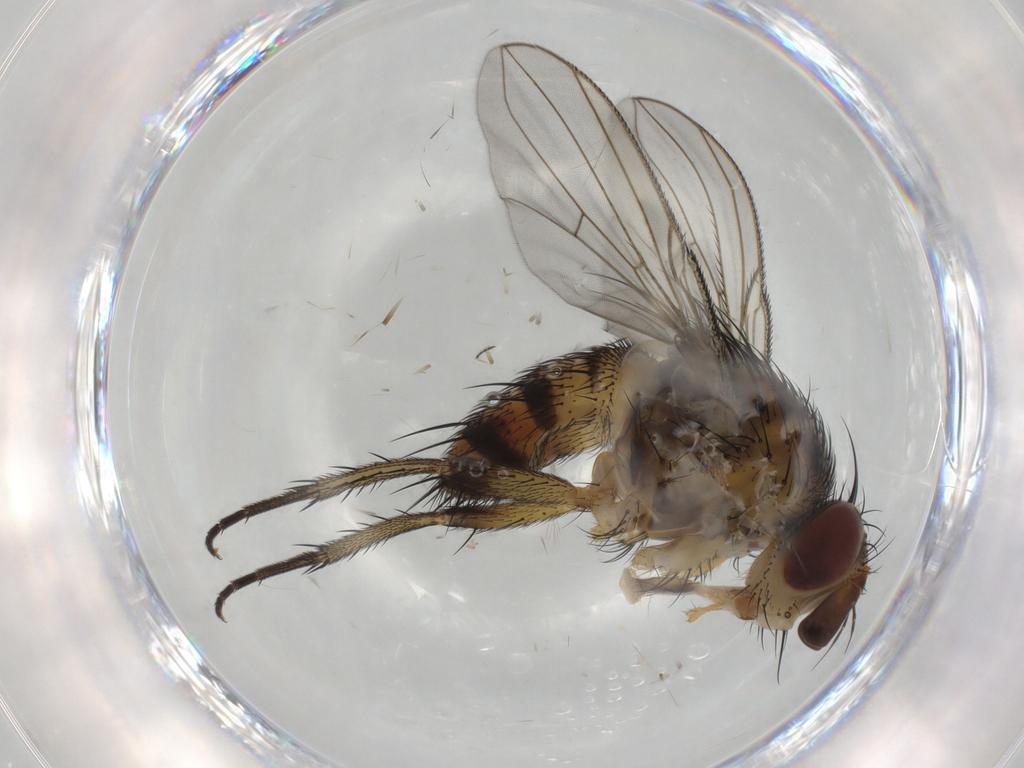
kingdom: Animalia
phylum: Arthropoda
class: Insecta
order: Diptera
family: Tachinidae
